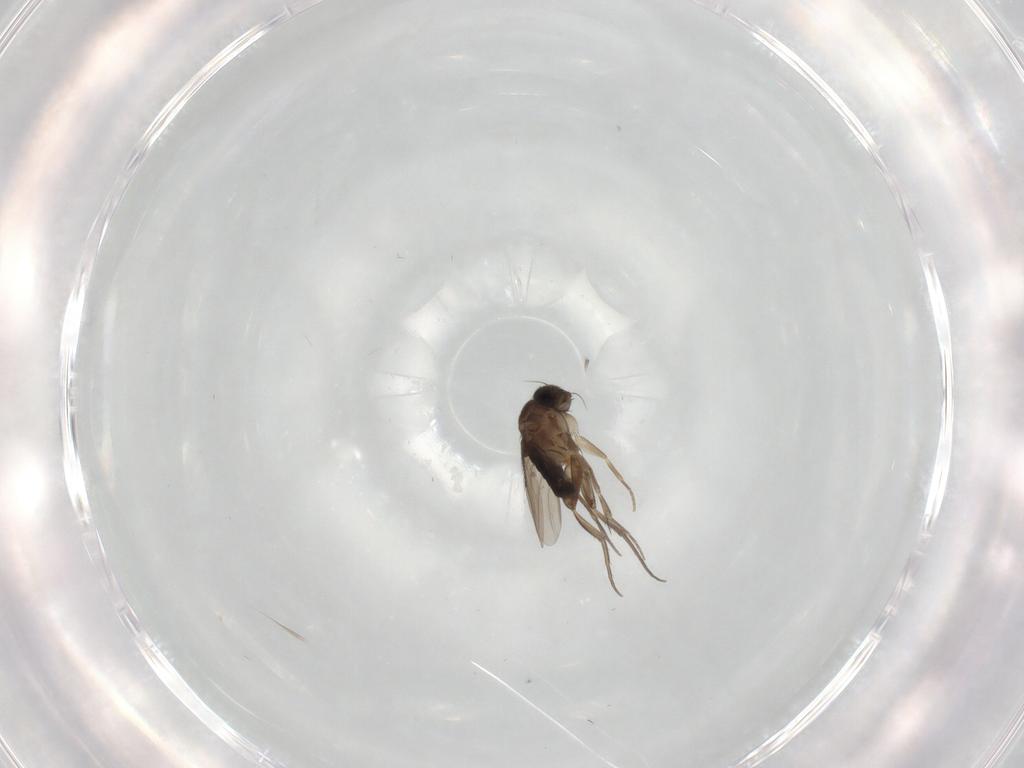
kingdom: Animalia
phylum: Arthropoda
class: Insecta
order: Diptera
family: Phoridae
